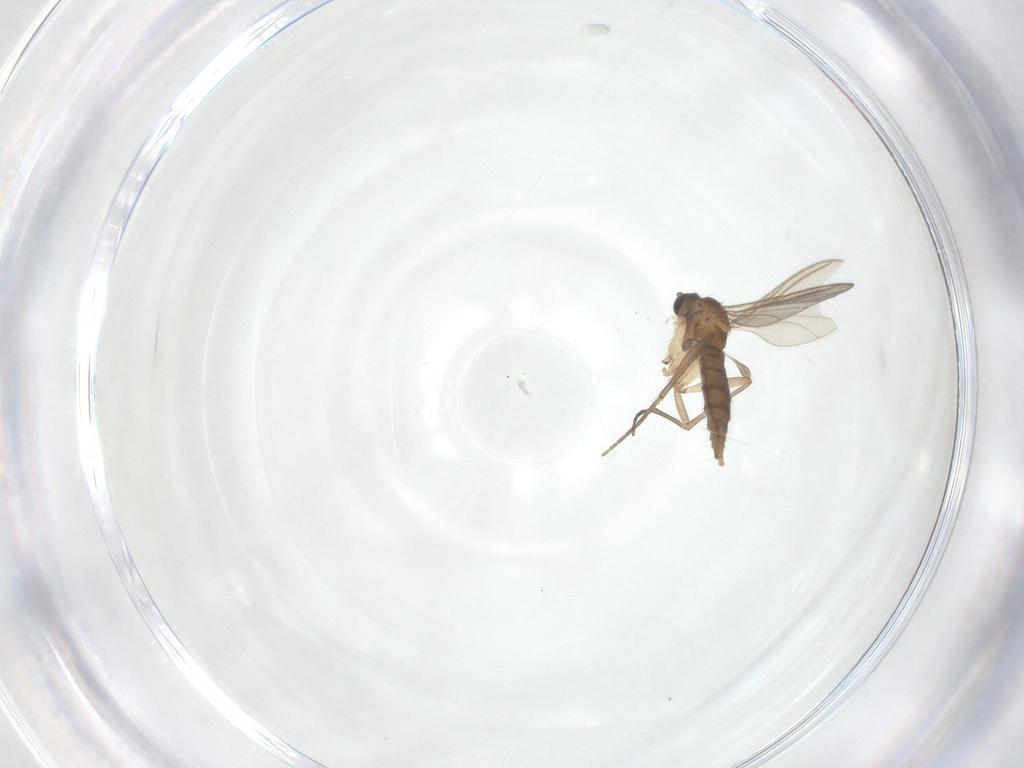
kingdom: Animalia
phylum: Arthropoda
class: Insecta
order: Diptera
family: Sciaridae
